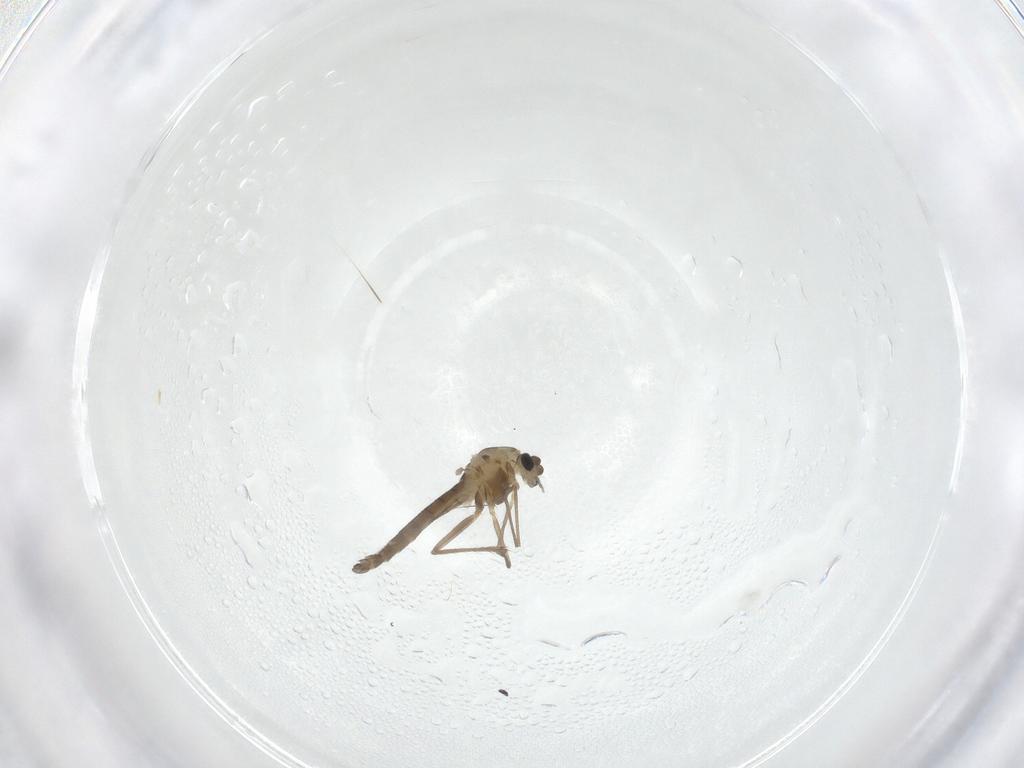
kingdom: Animalia
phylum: Arthropoda
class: Insecta
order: Diptera
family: Chironomidae
